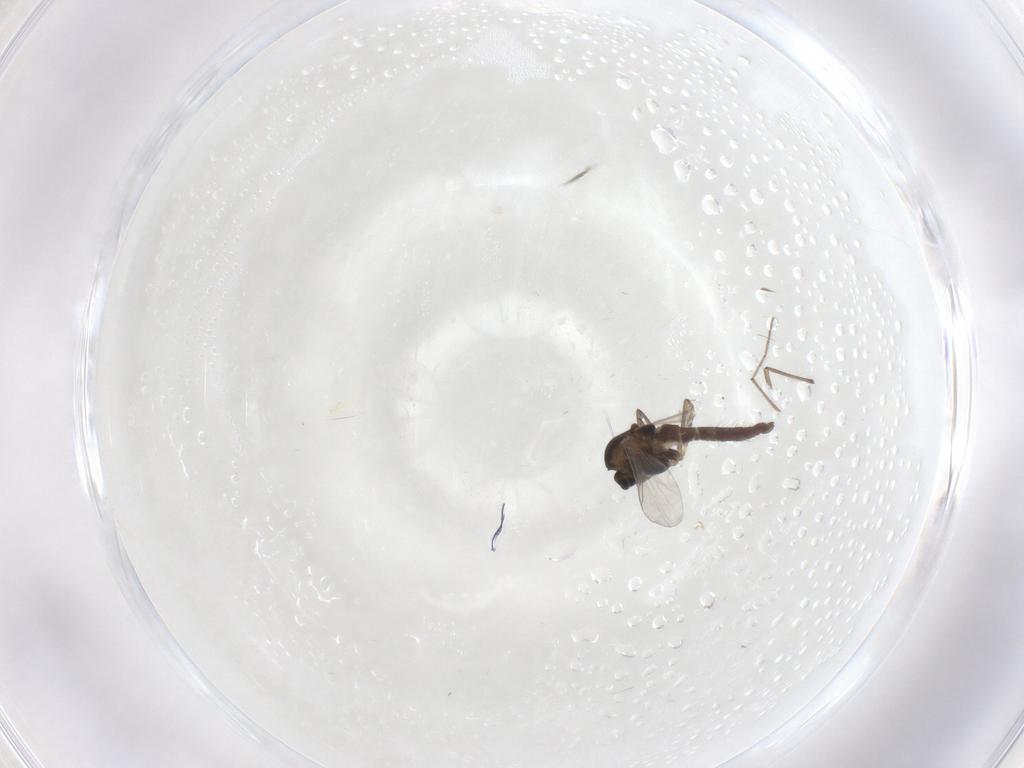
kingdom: Animalia
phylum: Arthropoda
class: Insecta
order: Diptera
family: Chironomidae
